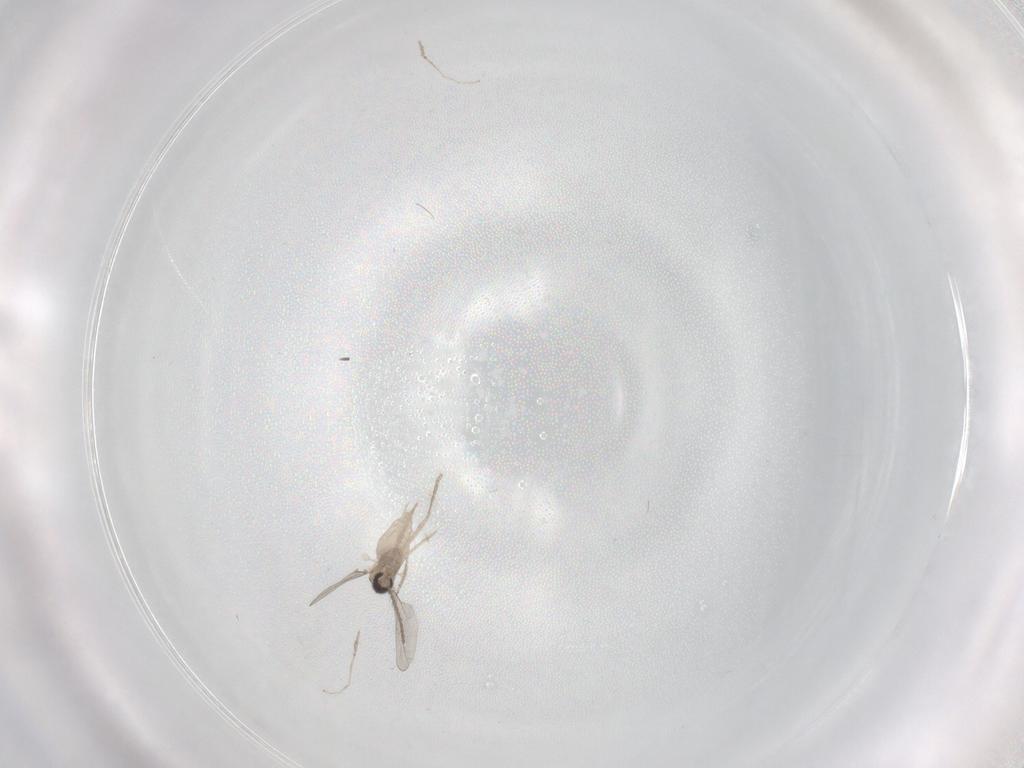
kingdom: Animalia
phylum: Arthropoda
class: Insecta
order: Diptera
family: Cecidomyiidae
